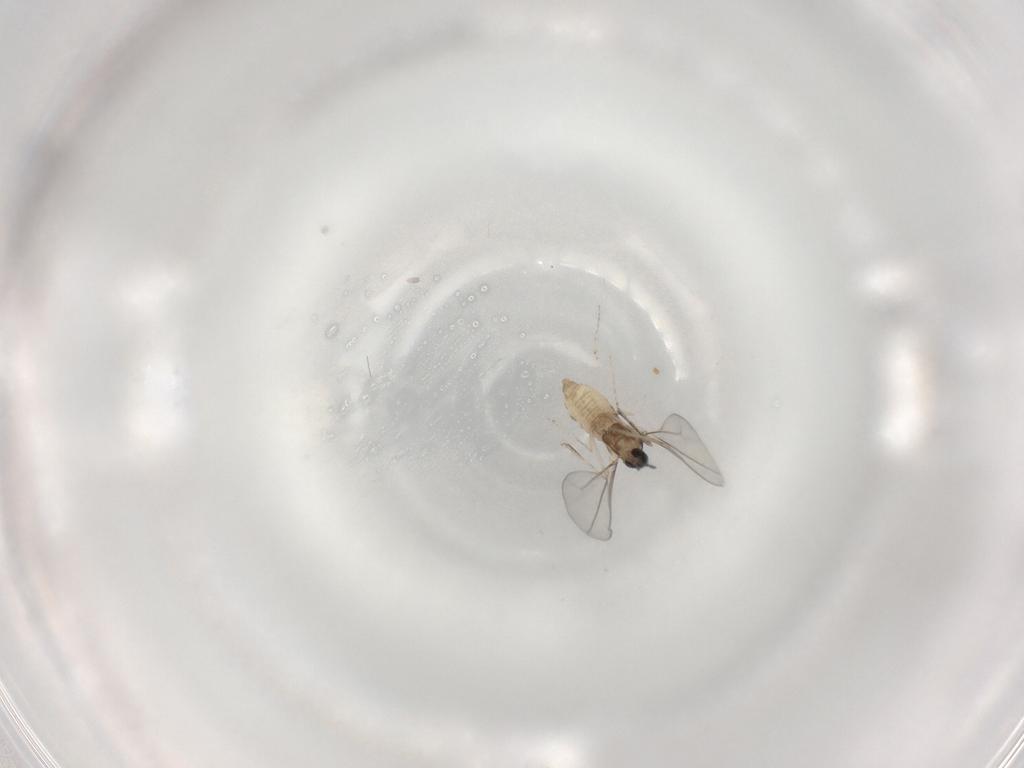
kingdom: Animalia
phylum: Arthropoda
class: Insecta
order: Diptera
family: Cecidomyiidae
